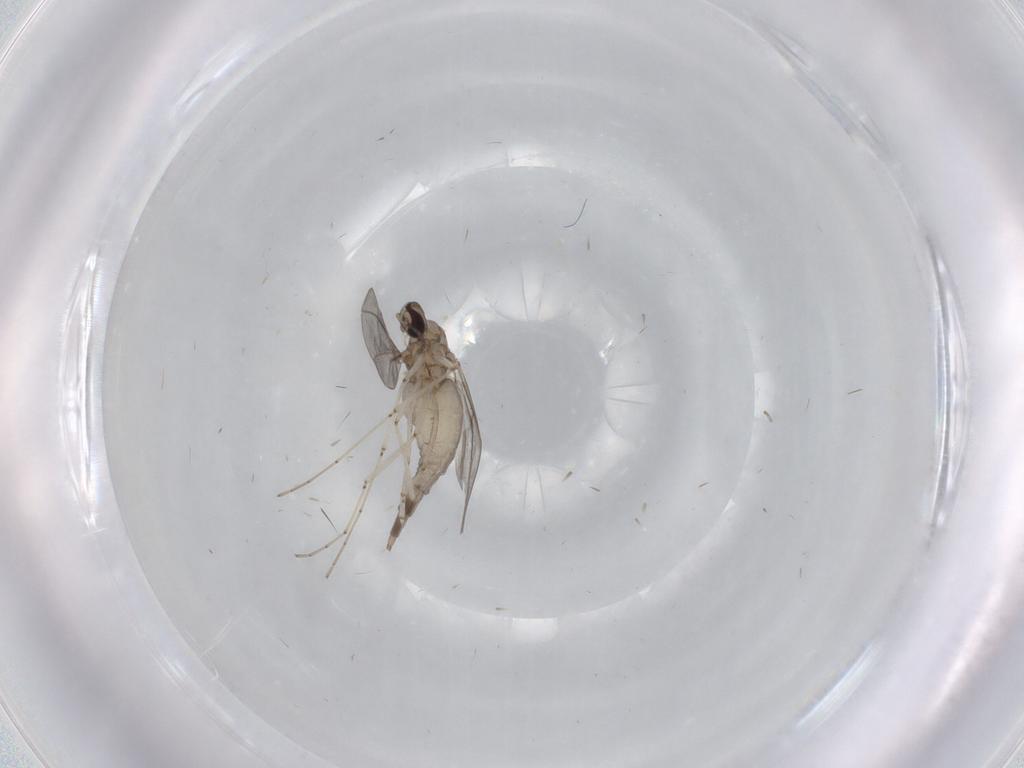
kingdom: Animalia
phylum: Arthropoda
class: Insecta
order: Diptera
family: Cecidomyiidae
